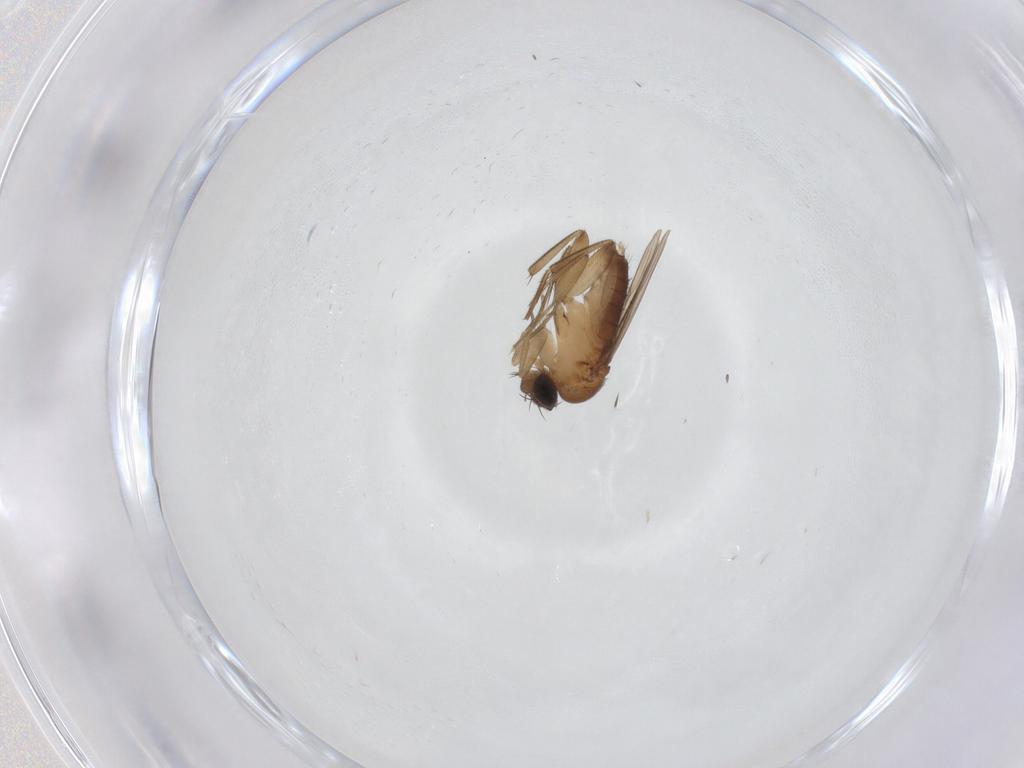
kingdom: Animalia
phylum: Arthropoda
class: Insecta
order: Diptera
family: Phoridae
